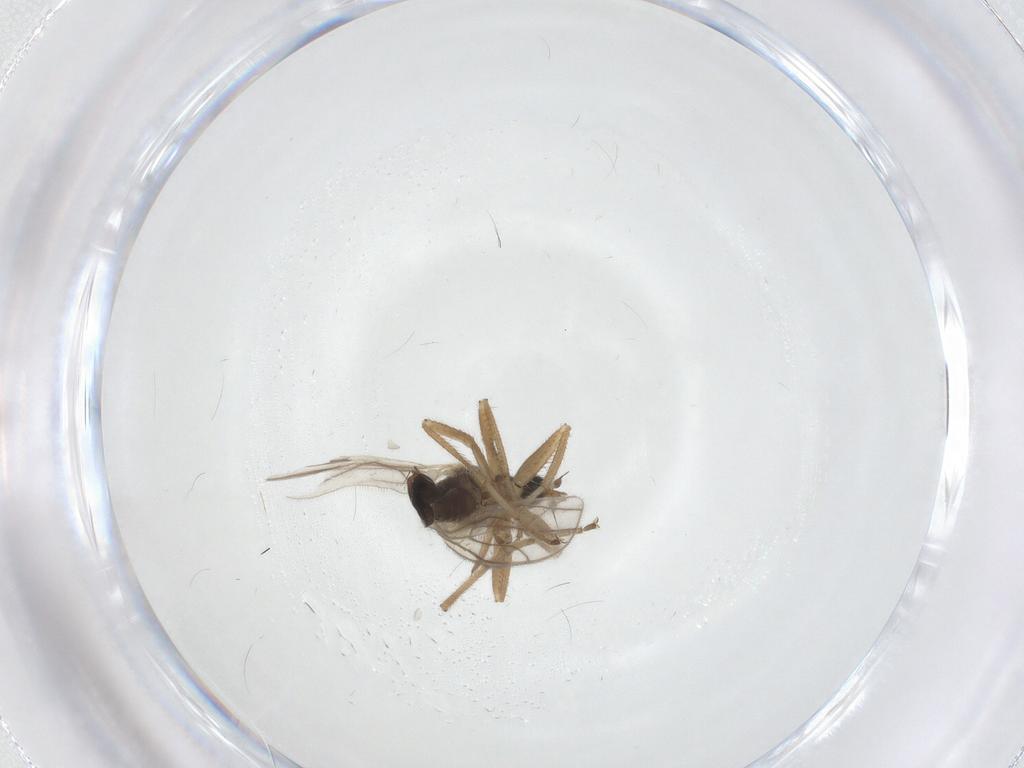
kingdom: Animalia
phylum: Arthropoda
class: Insecta
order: Diptera
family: Hybotidae
